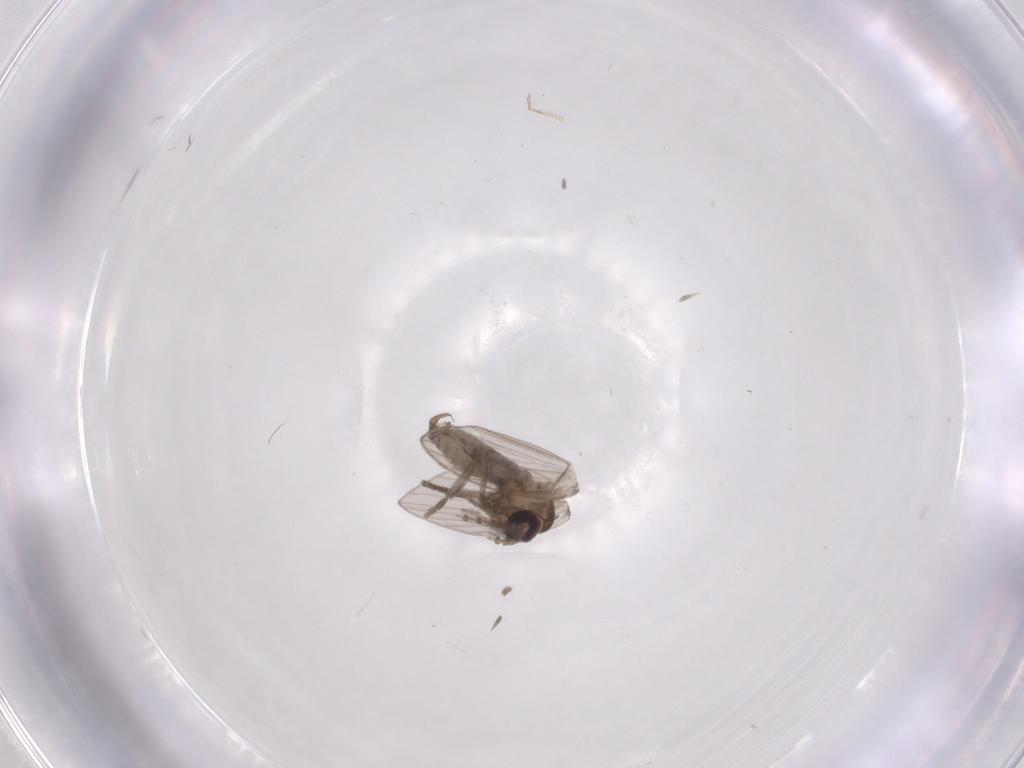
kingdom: Animalia
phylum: Arthropoda
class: Insecta
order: Diptera
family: Psychodidae
